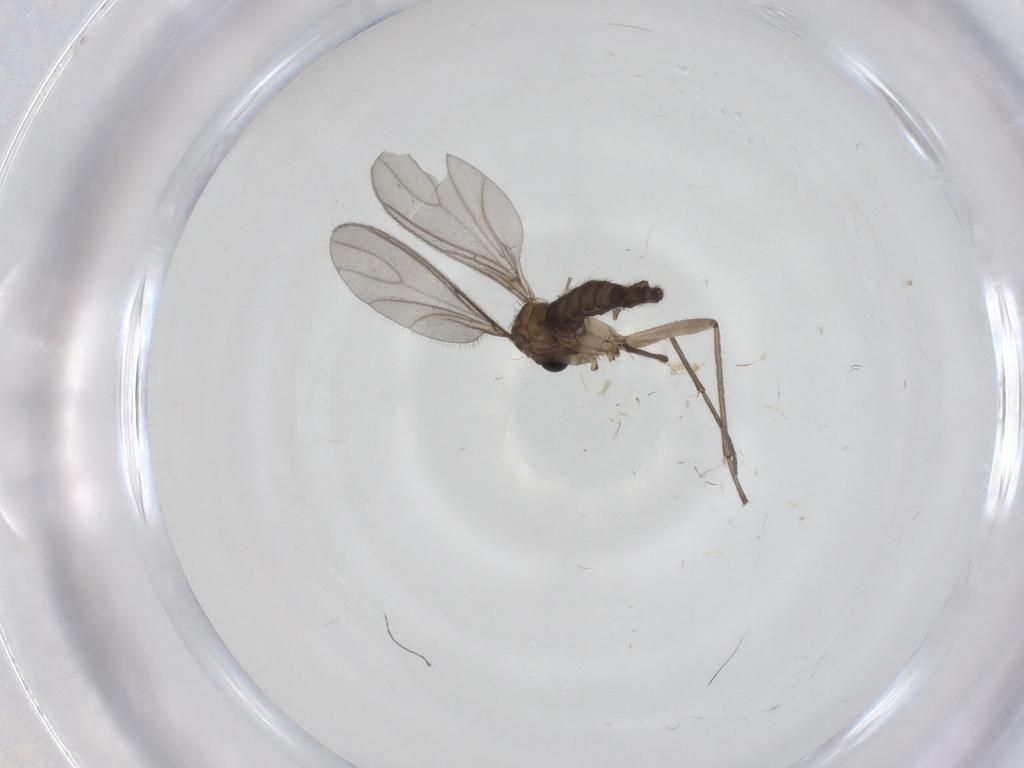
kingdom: Animalia
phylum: Arthropoda
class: Insecta
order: Diptera
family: Sciaridae
